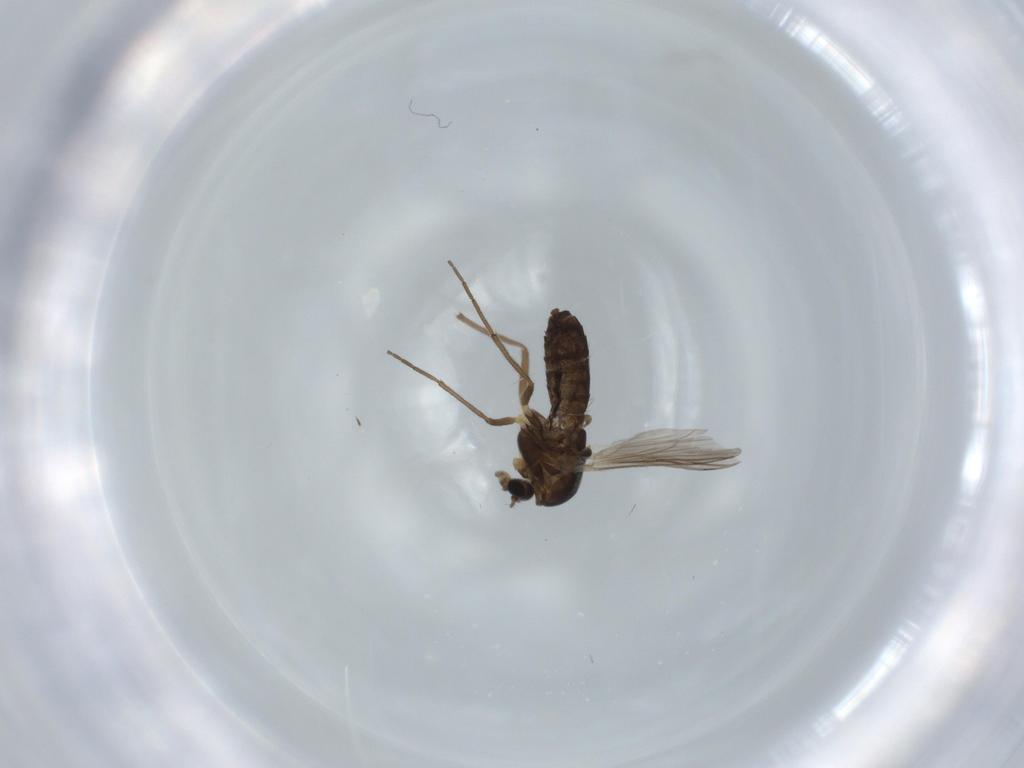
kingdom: Animalia
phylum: Arthropoda
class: Insecta
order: Diptera
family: Chironomidae
